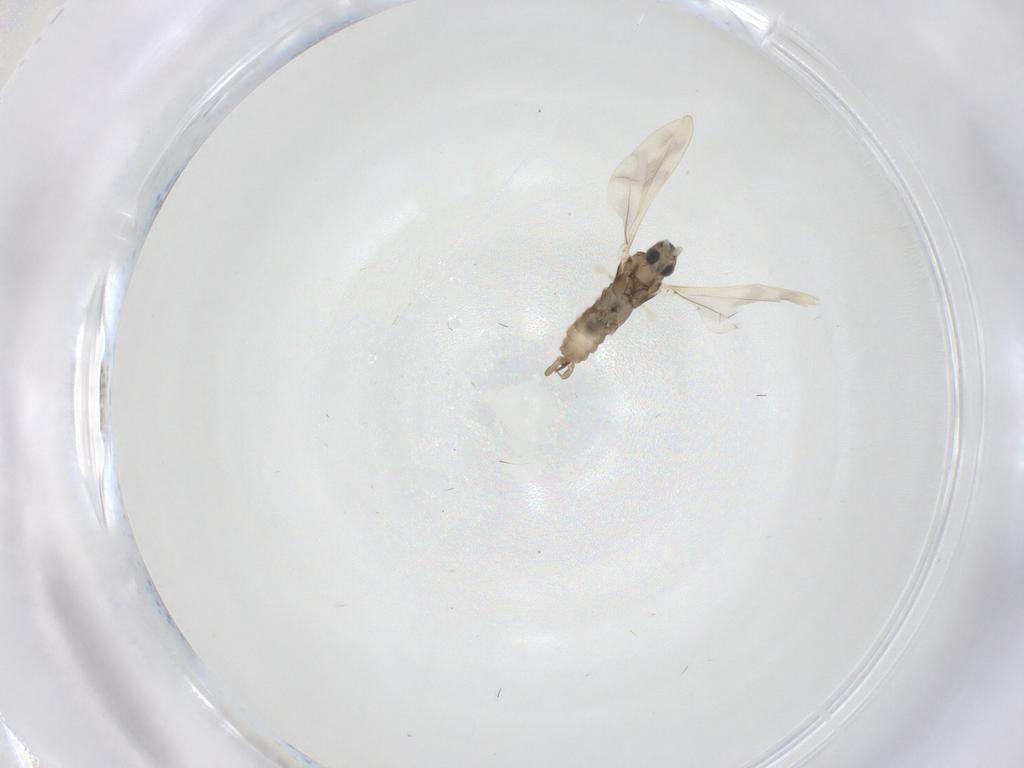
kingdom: Animalia
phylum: Arthropoda
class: Insecta
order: Diptera
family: Cecidomyiidae
